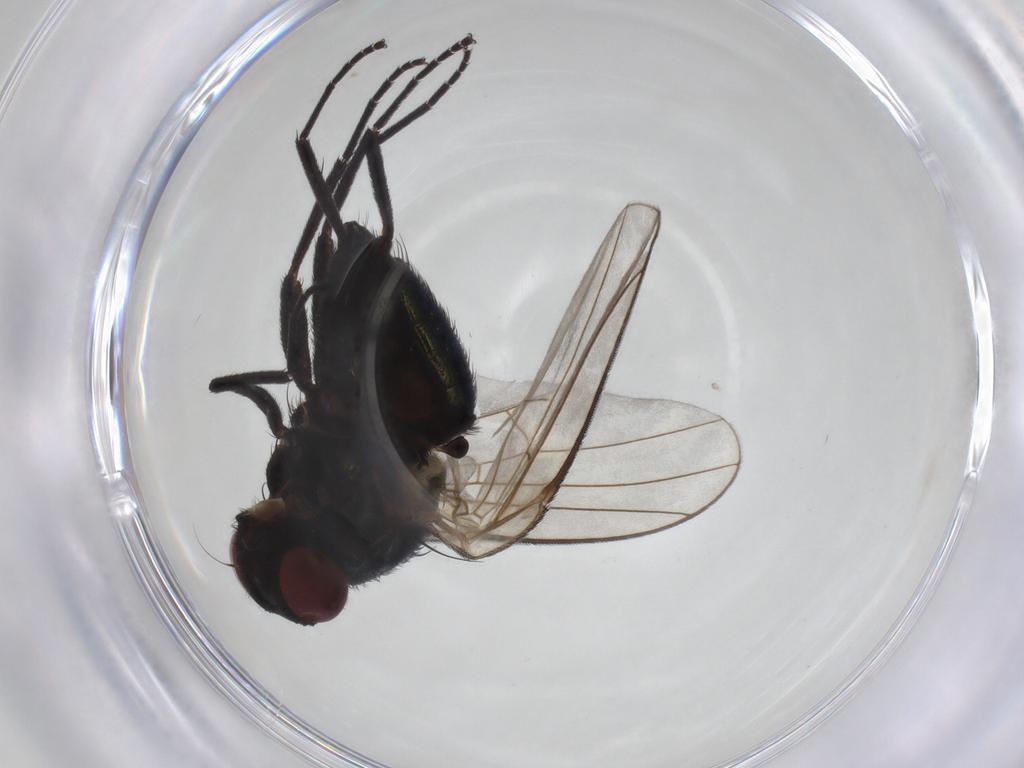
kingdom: Animalia
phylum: Arthropoda
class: Insecta
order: Diptera
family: Agromyzidae
